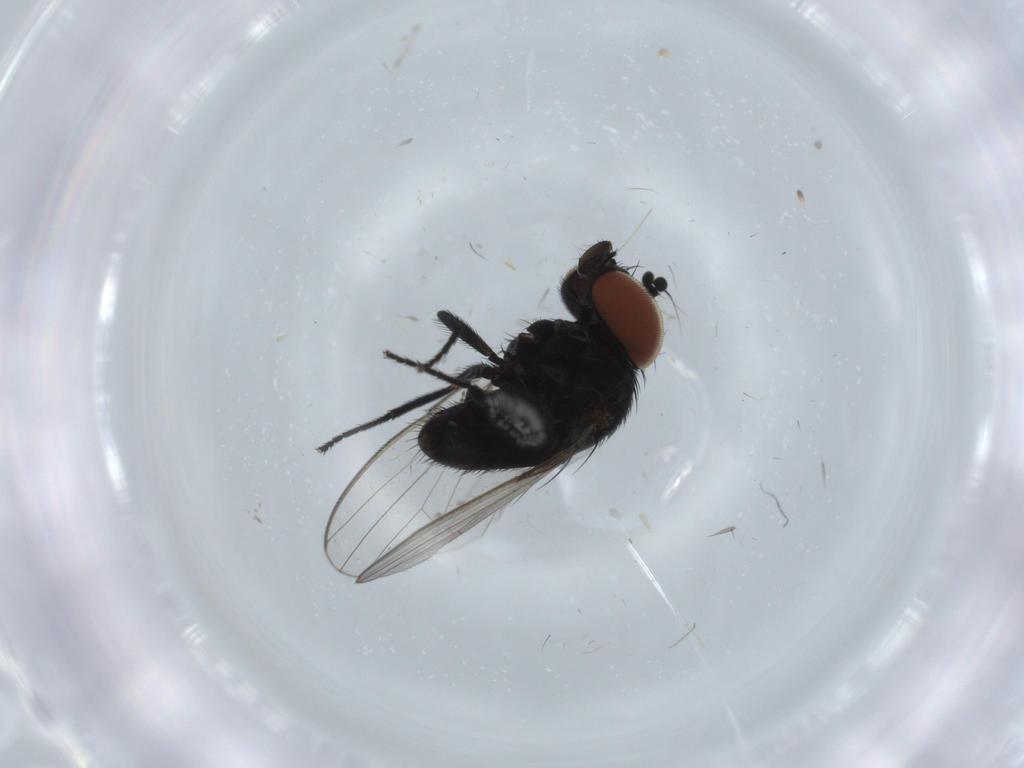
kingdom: Animalia
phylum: Arthropoda
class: Insecta
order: Diptera
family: Milichiidae
